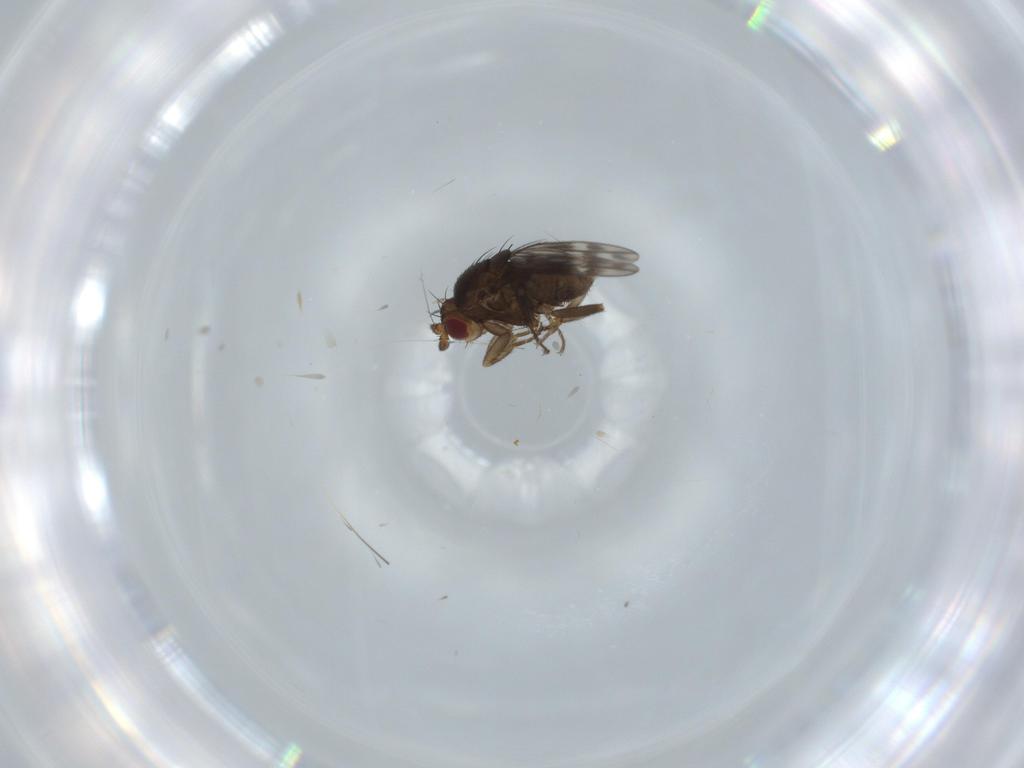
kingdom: Animalia
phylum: Arthropoda
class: Insecta
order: Diptera
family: Sphaeroceridae
